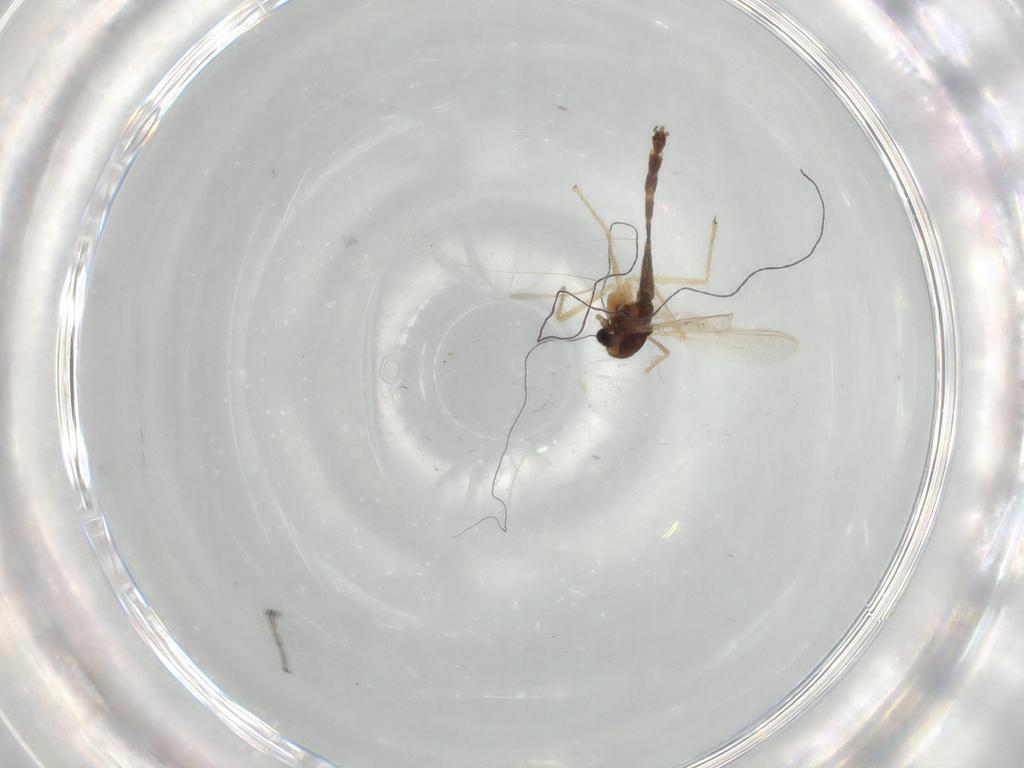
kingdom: Animalia
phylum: Arthropoda
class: Insecta
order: Diptera
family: Chironomidae
